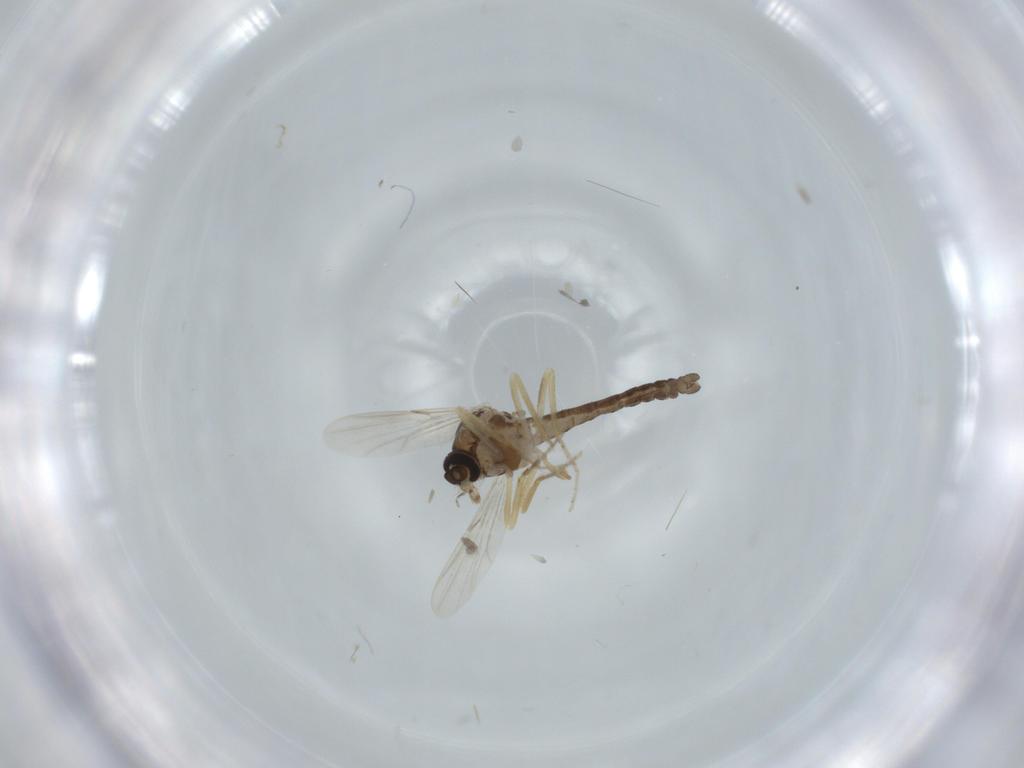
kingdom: Animalia
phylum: Arthropoda
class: Insecta
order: Diptera
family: Ceratopogonidae
